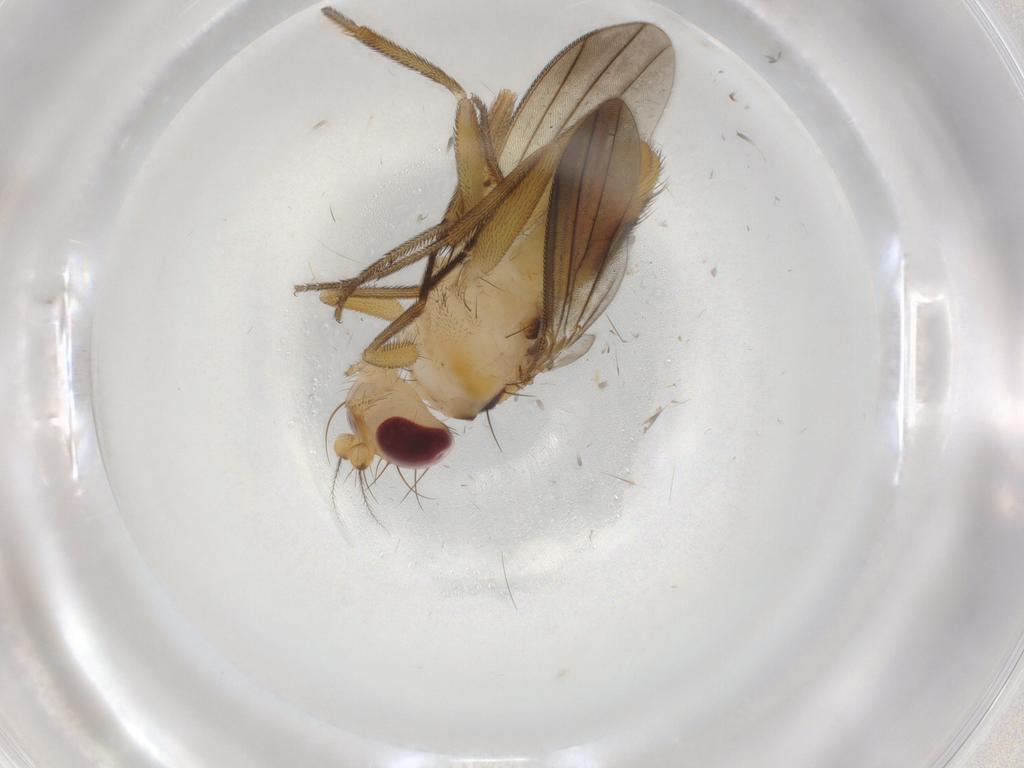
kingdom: Animalia
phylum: Arthropoda
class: Insecta
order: Diptera
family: Clusiidae
